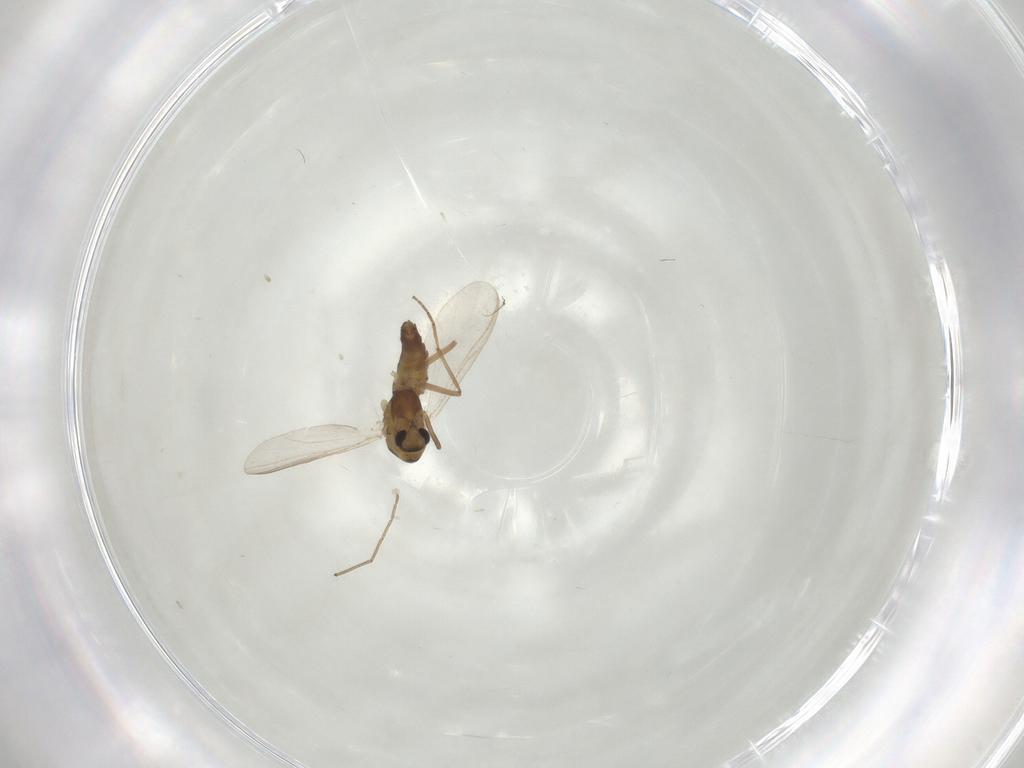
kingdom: Animalia
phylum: Arthropoda
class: Insecta
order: Diptera
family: Chironomidae
